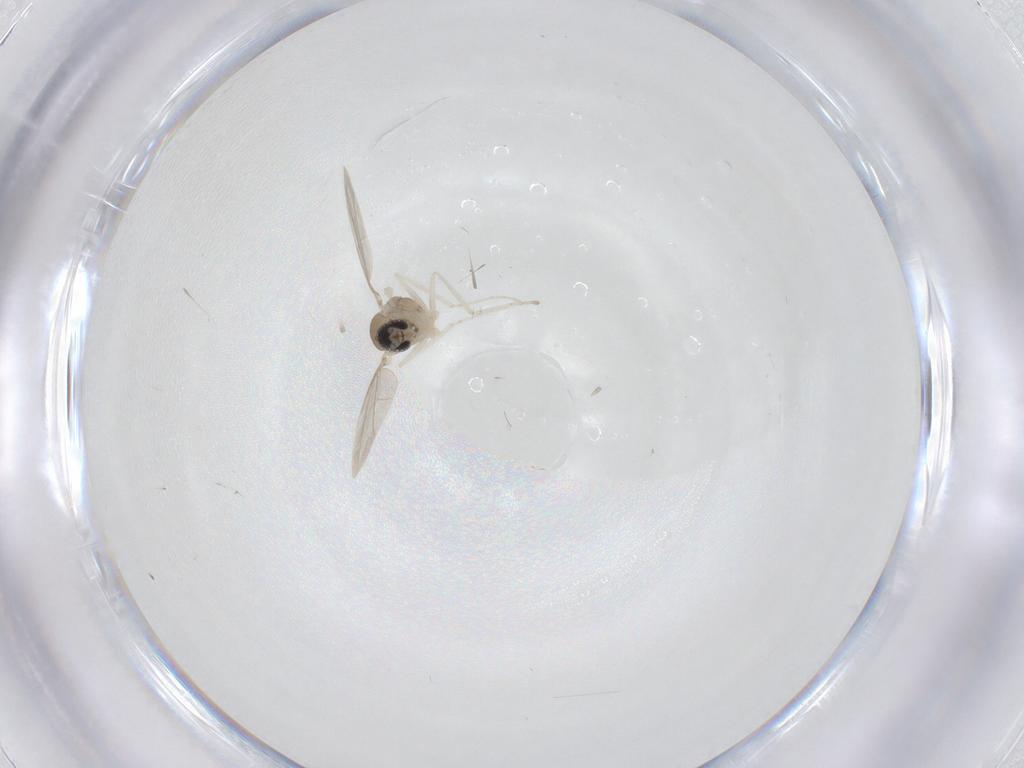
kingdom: Animalia
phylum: Arthropoda
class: Insecta
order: Diptera
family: Cecidomyiidae
